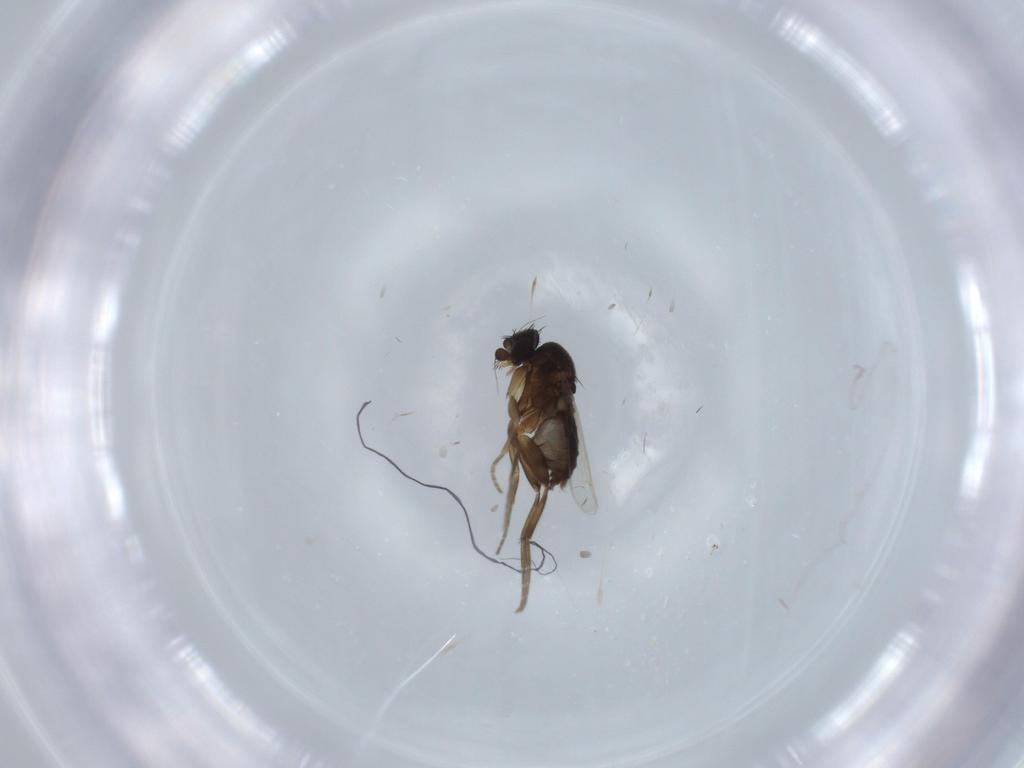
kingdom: Animalia
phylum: Arthropoda
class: Insecta
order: Diptera
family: Phoridae
